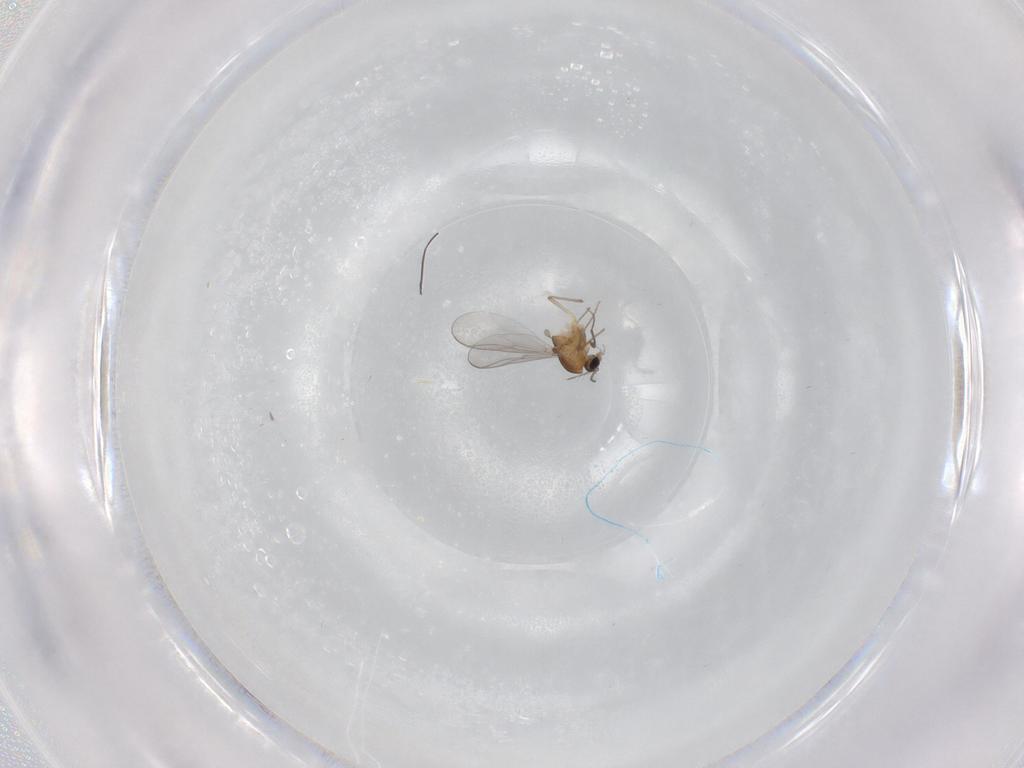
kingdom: Animalia
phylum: Arthropoda
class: Insecta
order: Diptera
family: Chironomidae
